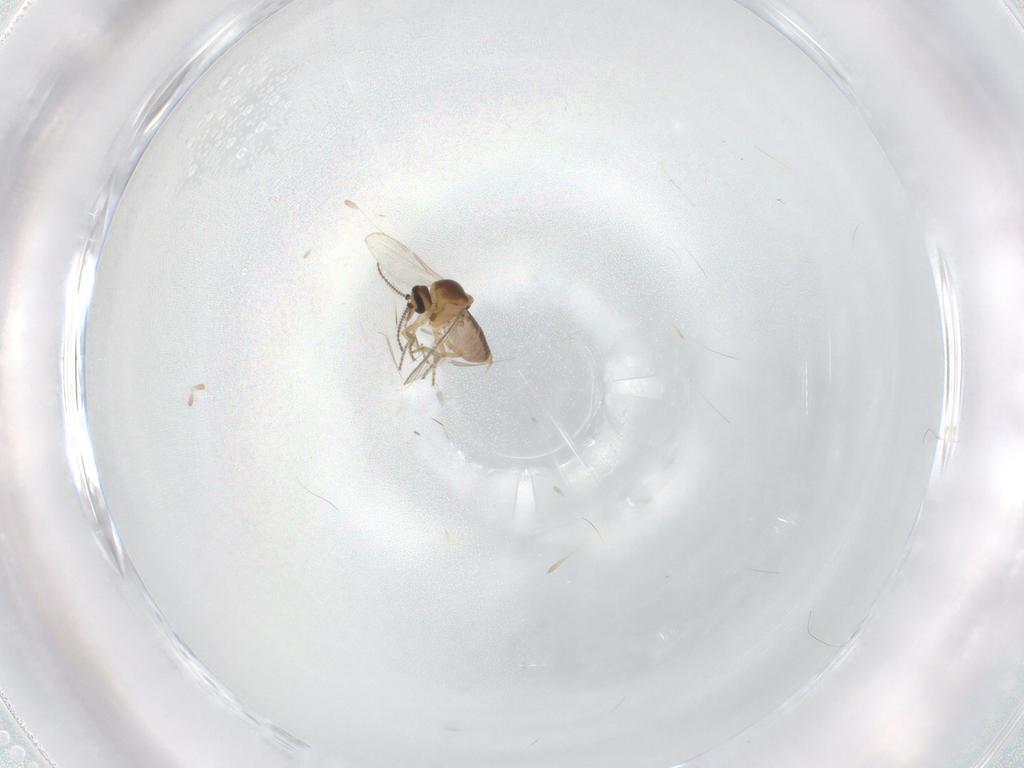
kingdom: Animalia
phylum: Arthropoda
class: Insecta
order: Diptera
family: Ceratopogonidae
